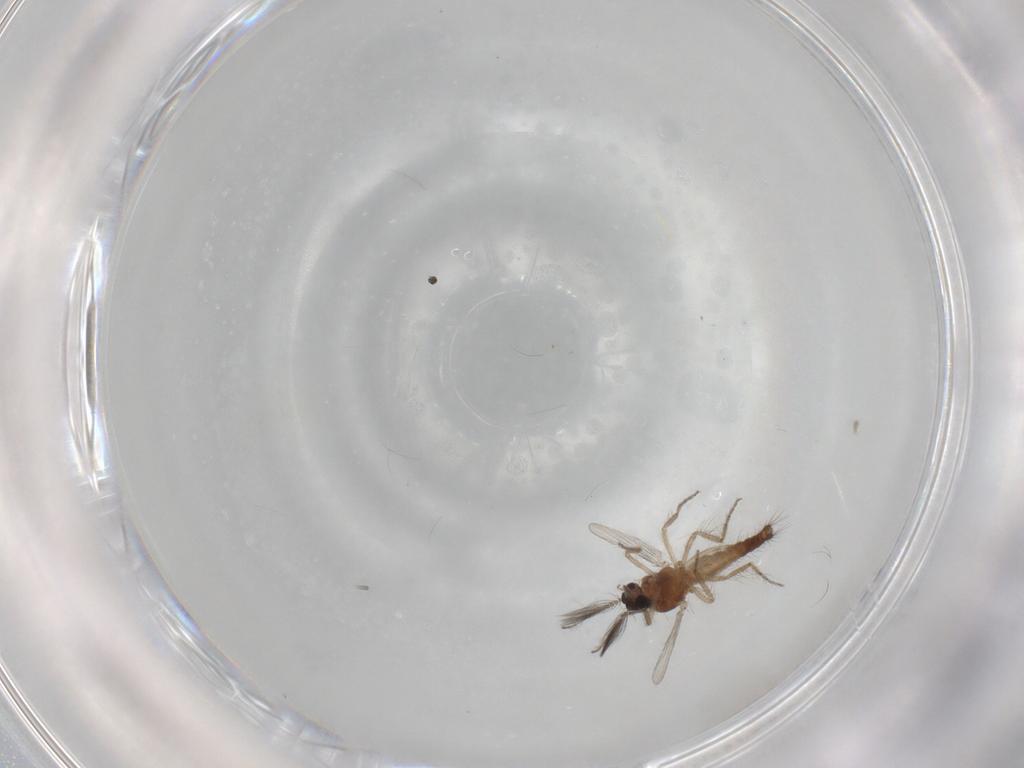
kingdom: Animalia
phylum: Arthropoda
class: Insecta
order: Diptera
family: Ceratopogonidae
